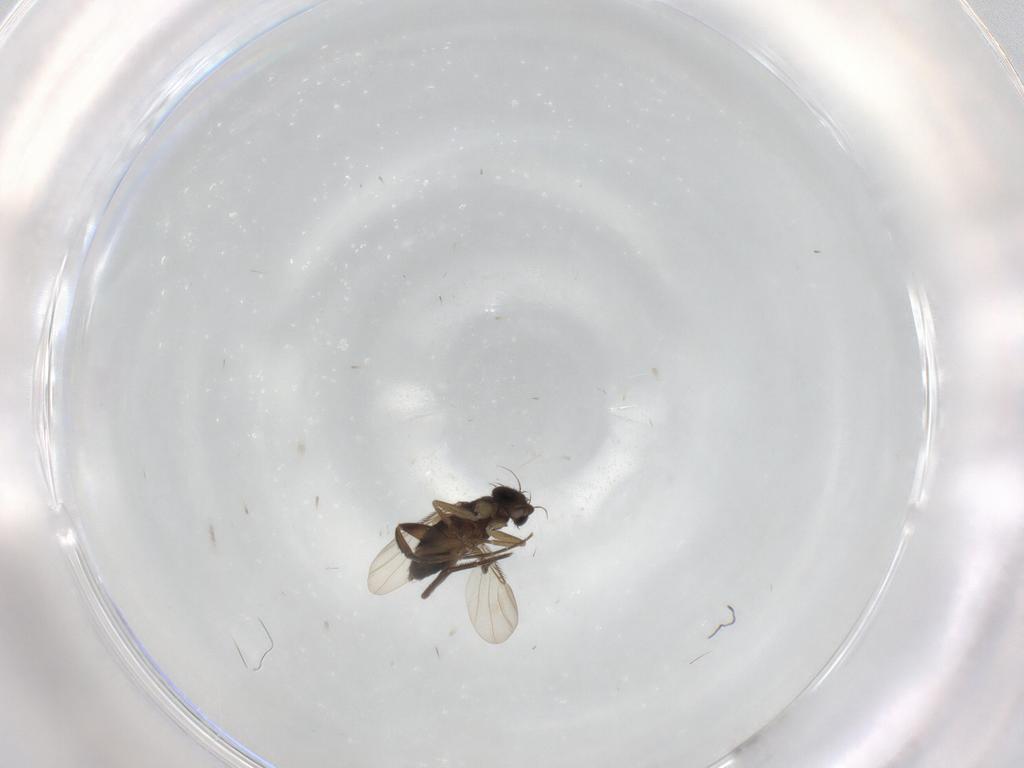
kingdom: Animalia
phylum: Arthropoda
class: Insecta
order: Diptera
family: Phoridae
